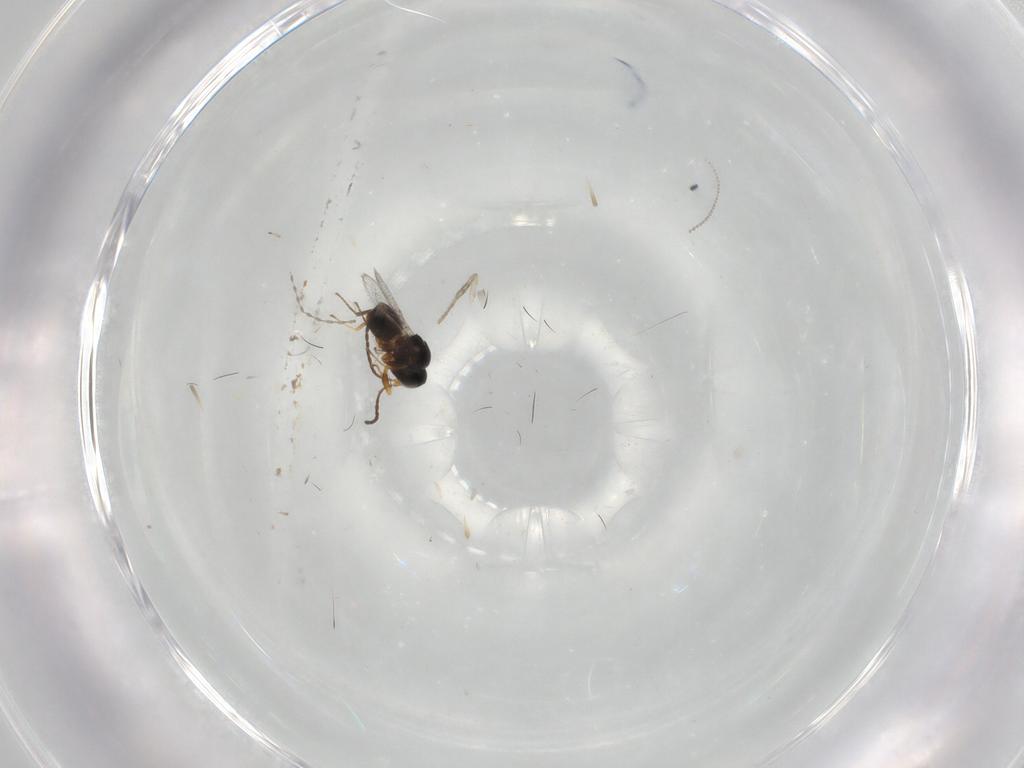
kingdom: Animalia
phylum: Arthropoda
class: Insecta
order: Hymenoptera
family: Figitidae
